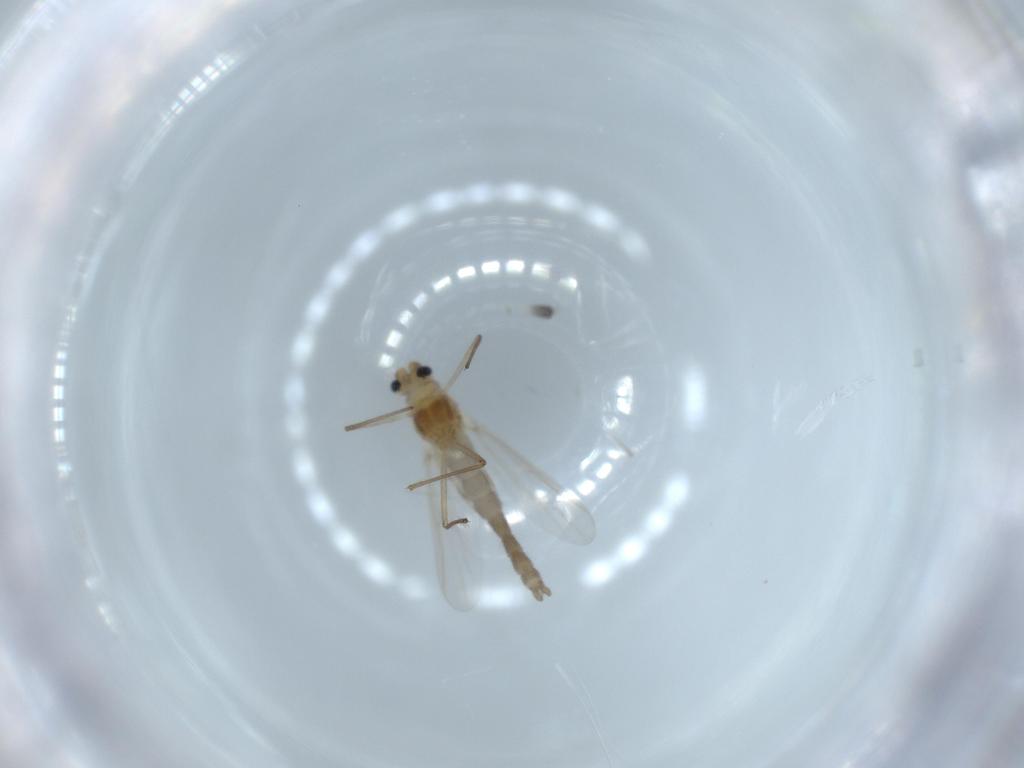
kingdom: Animalia
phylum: Arthropoda
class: Insecta
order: Diptera
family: Chironomidae
